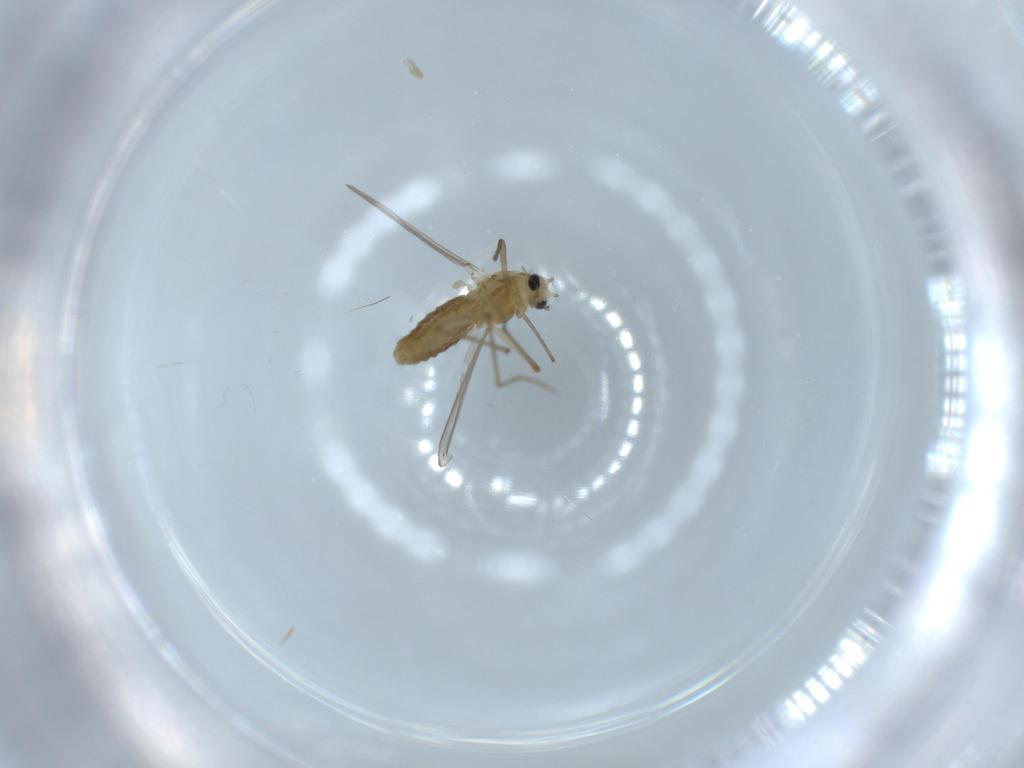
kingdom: Animalia
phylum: Arthropoda
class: Insecta
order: Diptera
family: Chironomidae
